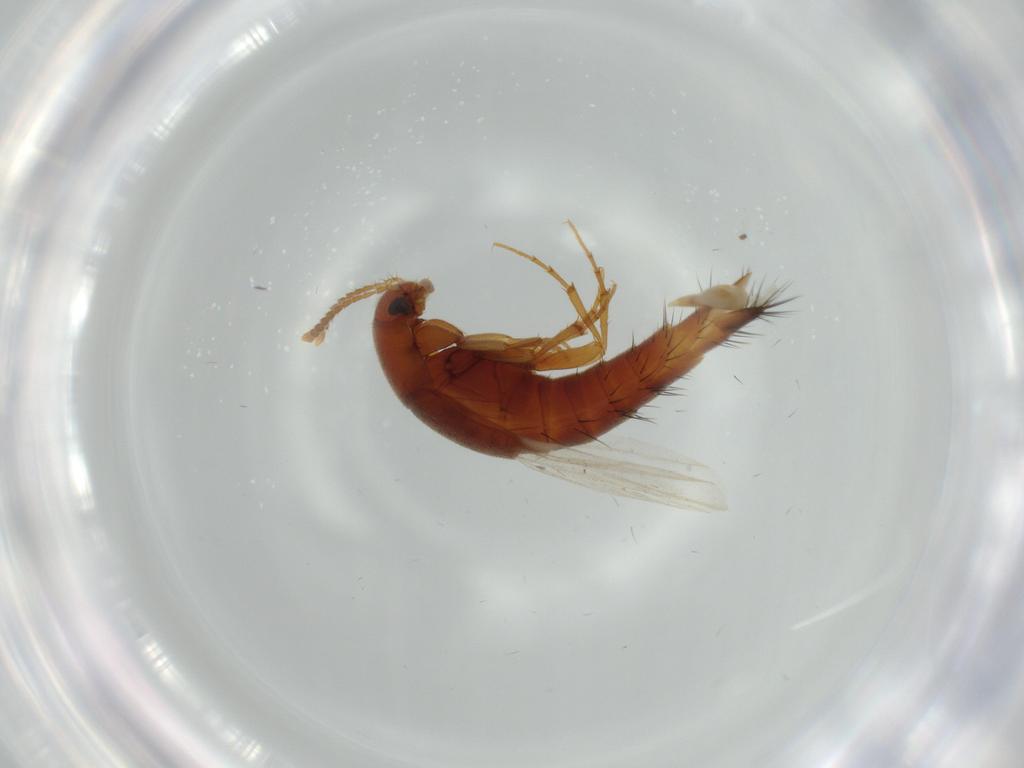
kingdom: Animalia
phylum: Arthropoda
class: Insecta
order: Coleoptera
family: Staphylinidae
